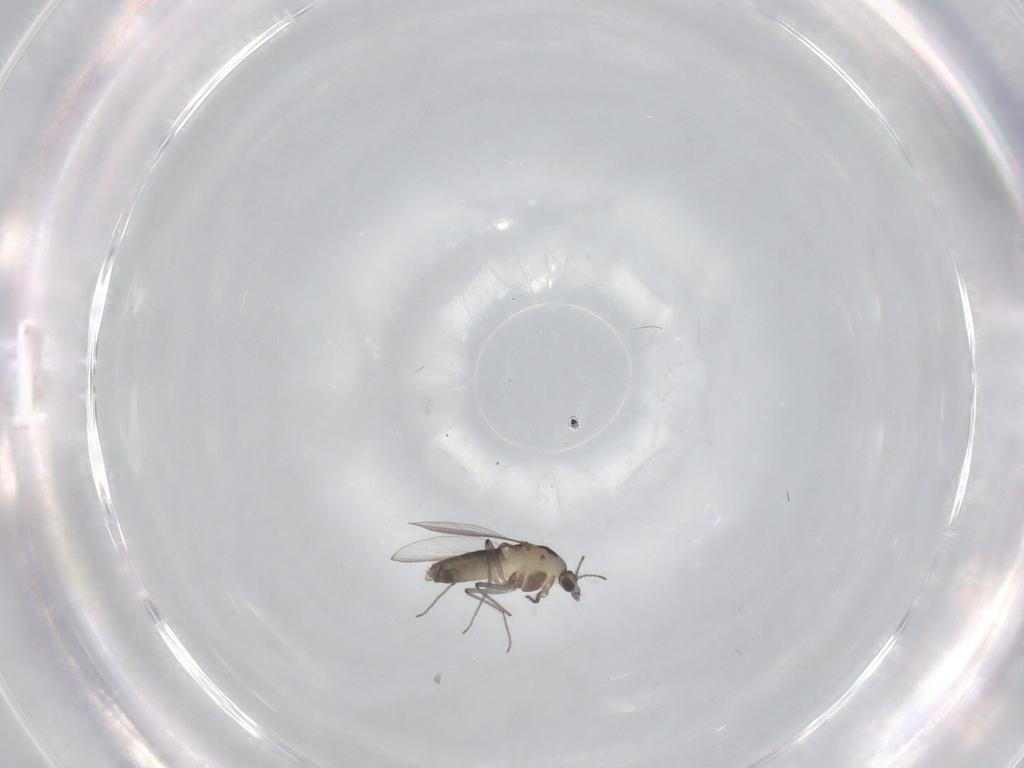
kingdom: Animalia
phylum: Arthropoda
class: Insecta
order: Diptera
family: Chironomidae
